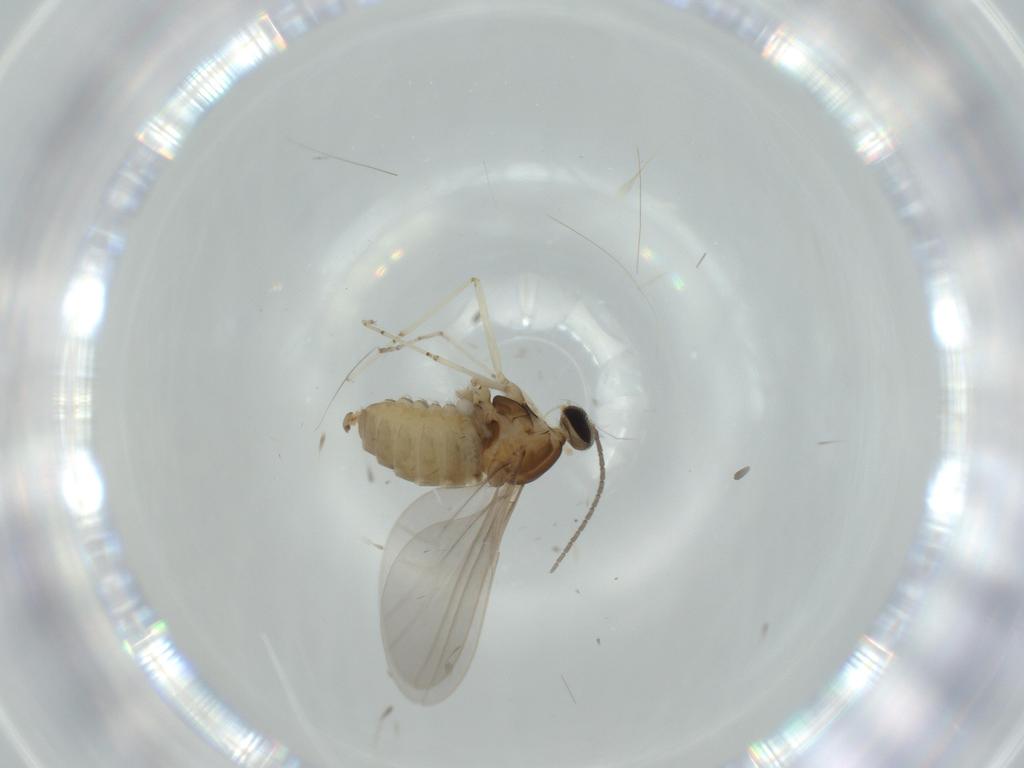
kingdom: Animalia
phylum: Arthropoda
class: Insecta
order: Diptera
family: Cecidomyiidae
